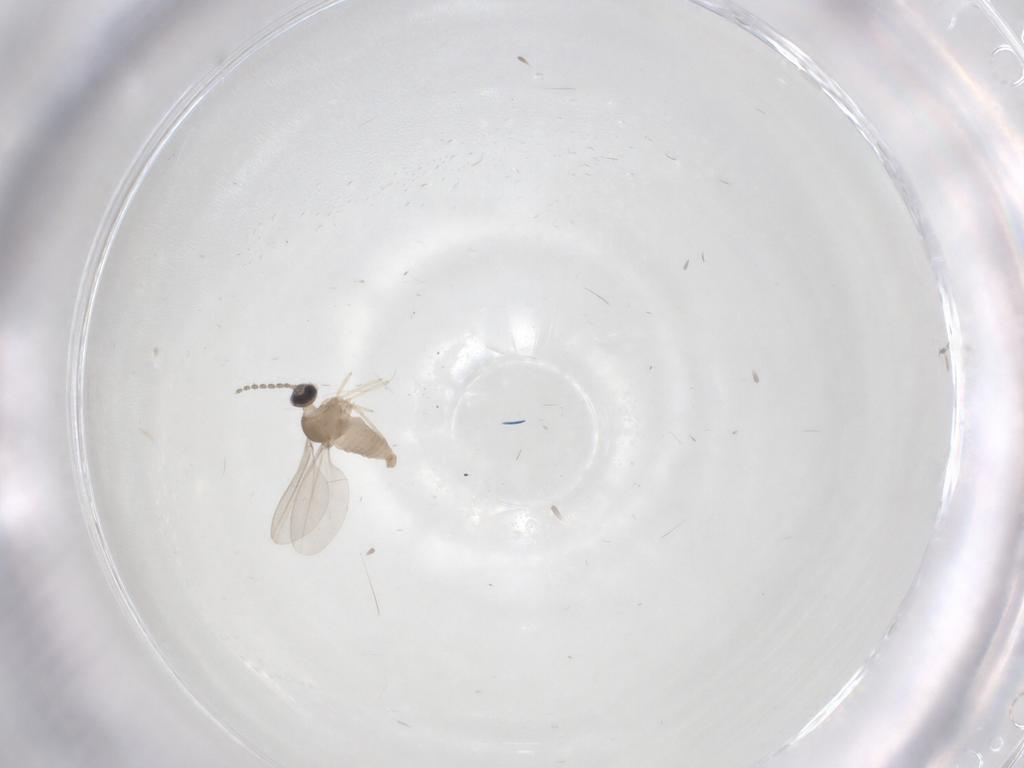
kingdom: Animalia
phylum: Arthropoda
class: Insecta
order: Diptera
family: Cecidomyiidae
